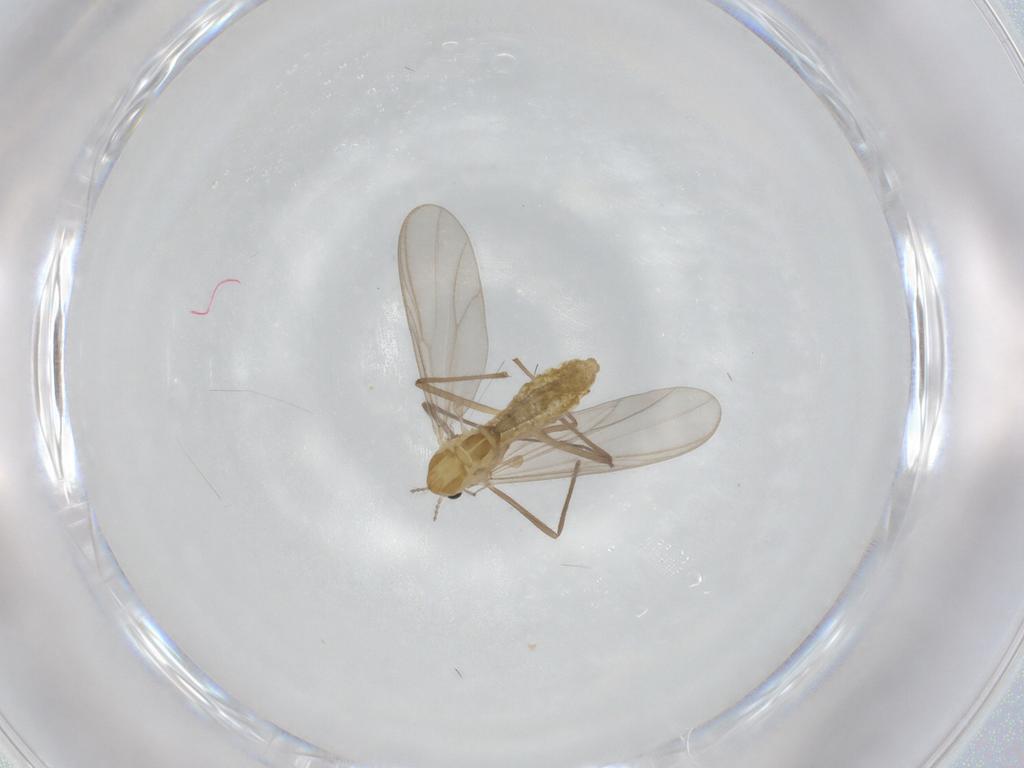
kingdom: Animalia
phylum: Arthropoda
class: Insecta
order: Diptera
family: Chironomidae
